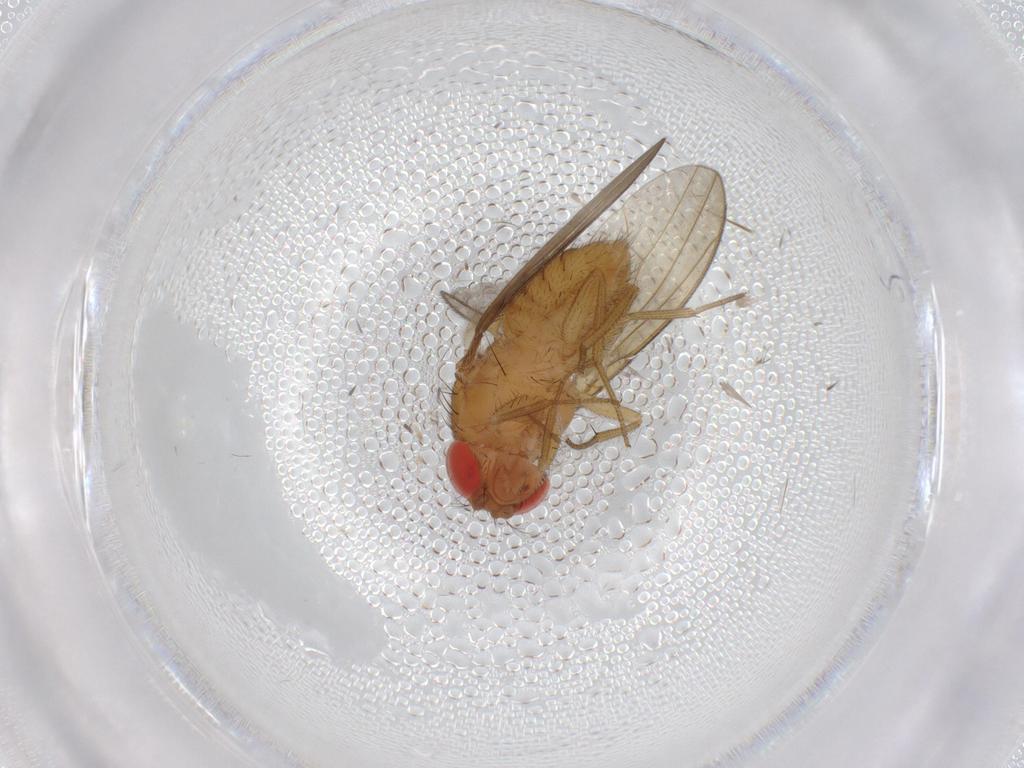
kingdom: Animalia
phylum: Arthropoda
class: Insecta
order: Diptera
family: Drosophilidae
